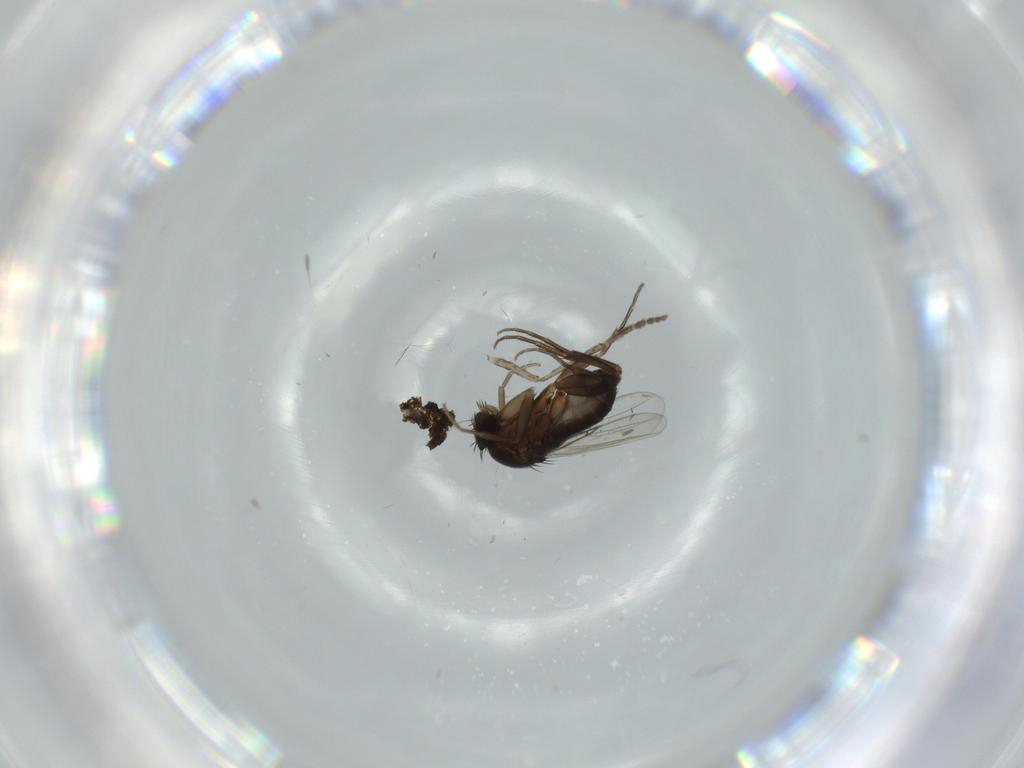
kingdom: Animalia
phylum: Arthropoda
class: Insecta
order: Diptera
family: Phoridae
